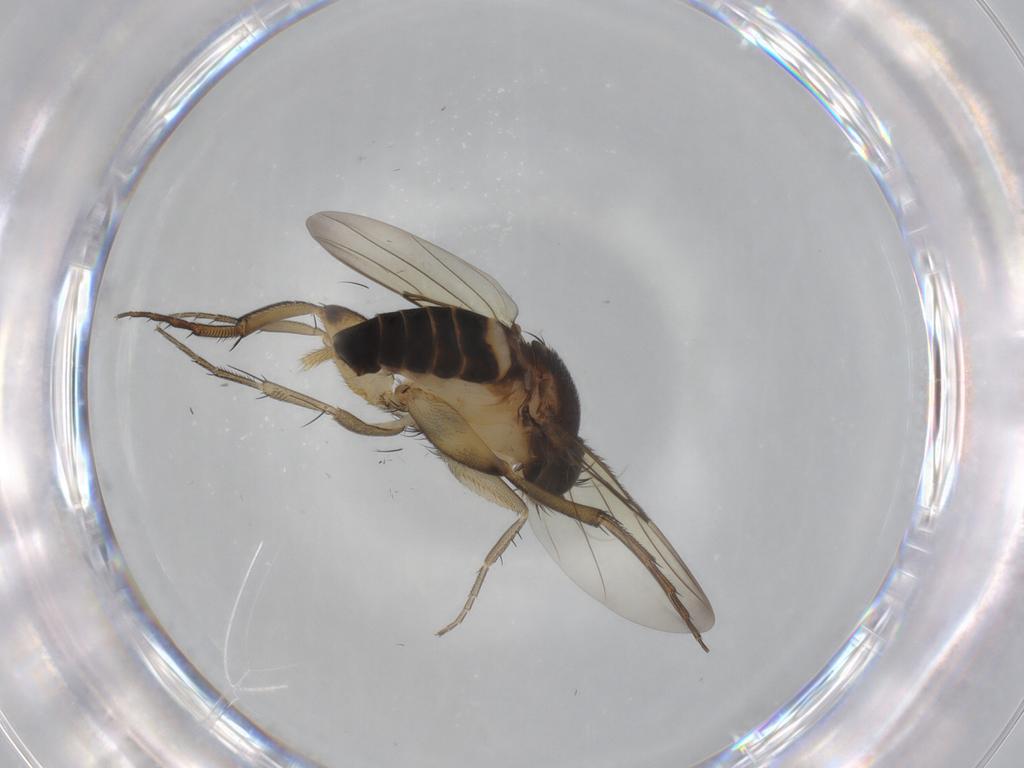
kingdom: Animalia
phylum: Arthropoda
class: Insecta
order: Diptera
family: Phoridae
